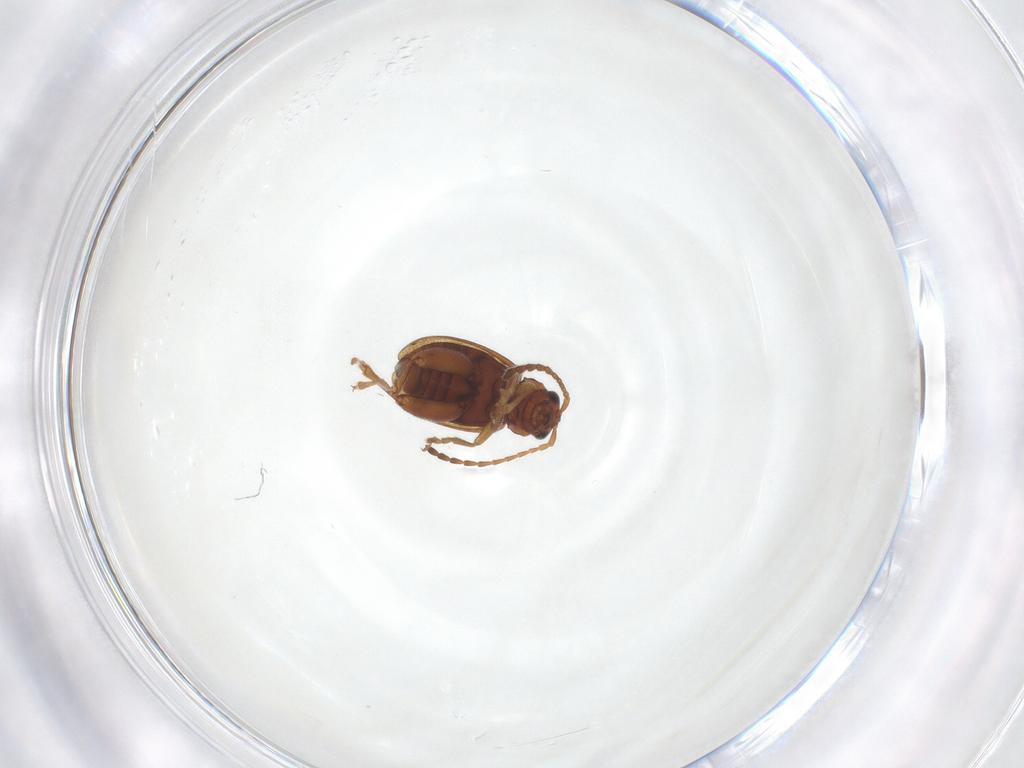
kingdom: Animalia
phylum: Arthropoda
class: Insecta
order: Coleoptera
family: Chrysomelidae
